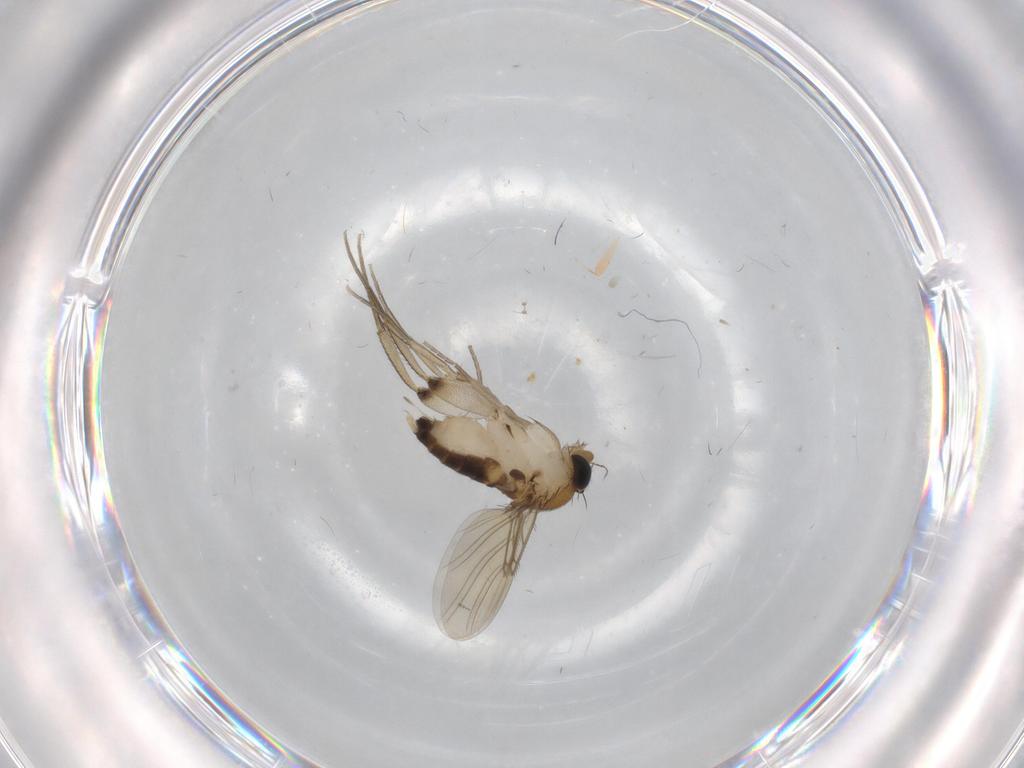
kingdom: Animalia
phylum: Arthropoda
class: Insecta
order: Diptera
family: Phoridae
